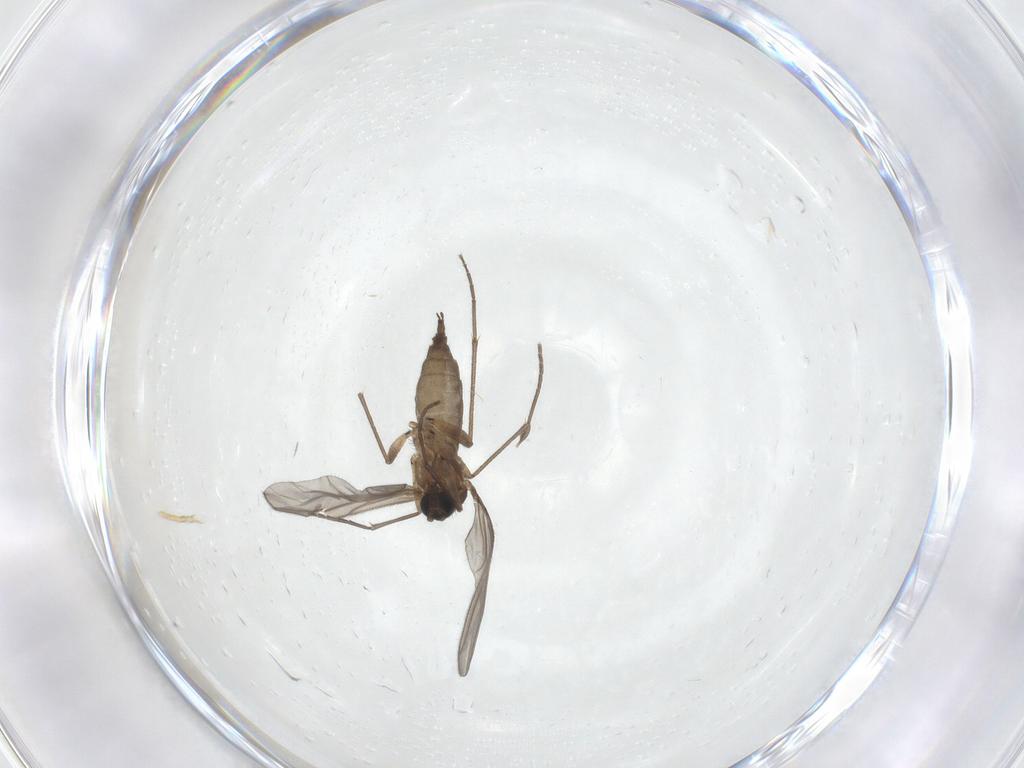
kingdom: Animalia
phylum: Arthropoda
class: Insecta
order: Diptera
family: Sciaridae
